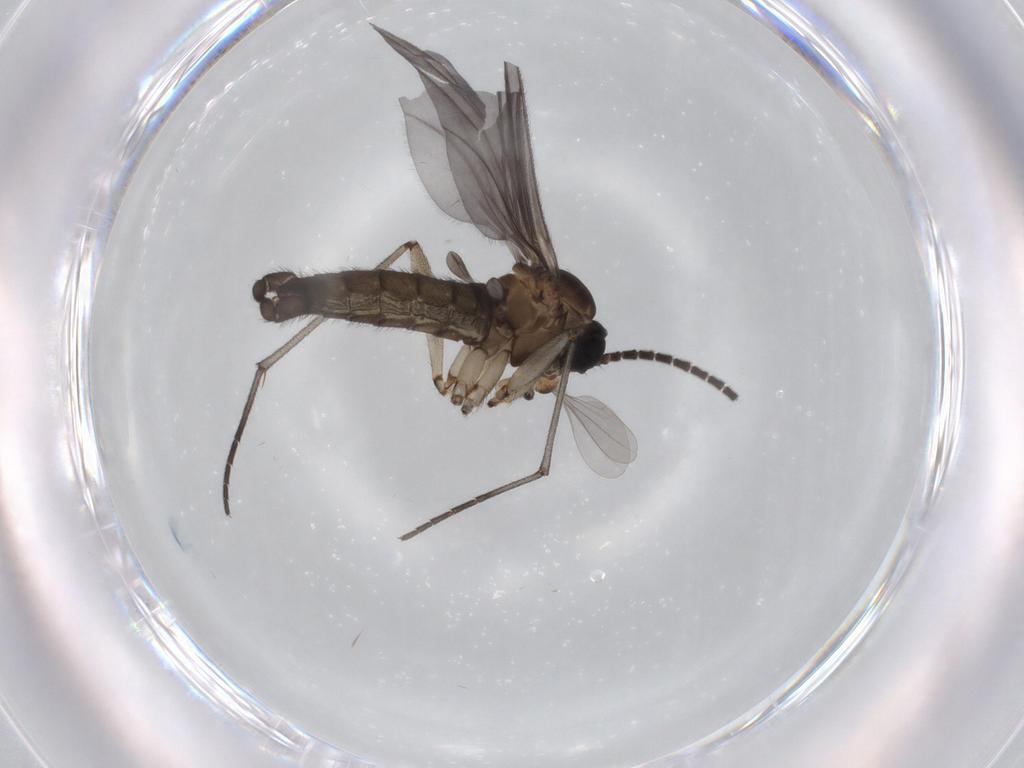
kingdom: Animalia
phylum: Arthropoda
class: Insecta
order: Diptera
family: Sciaridae
